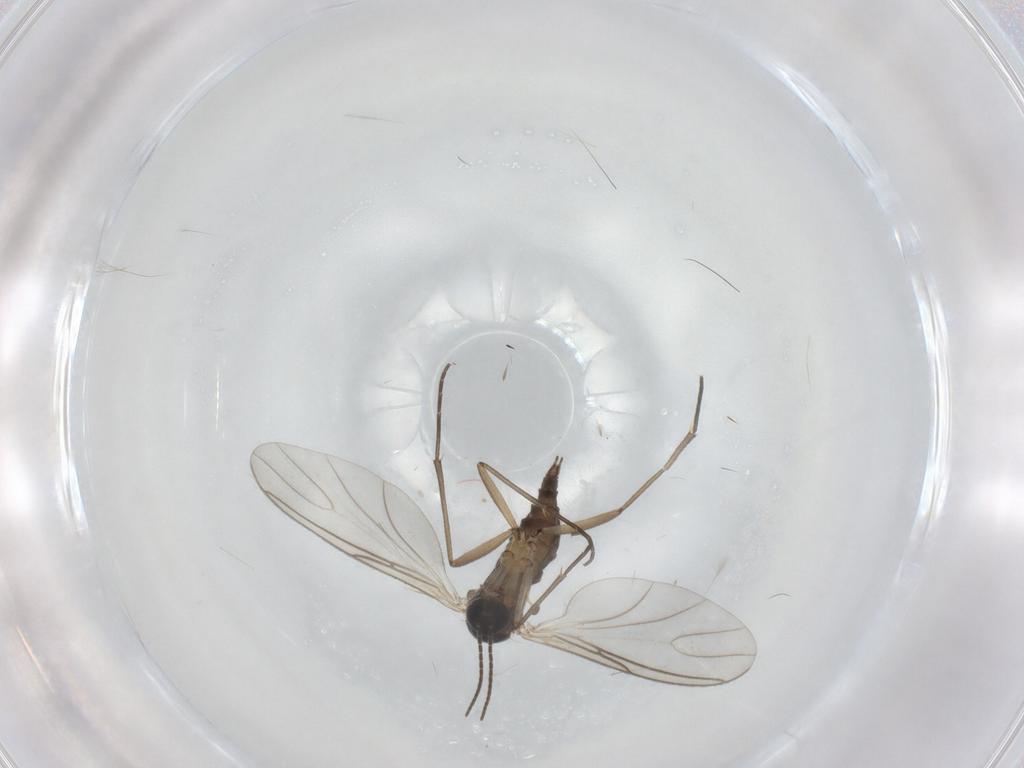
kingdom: Animalia
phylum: Arthropoda
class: Insecta
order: Diptera
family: Sciaridae
